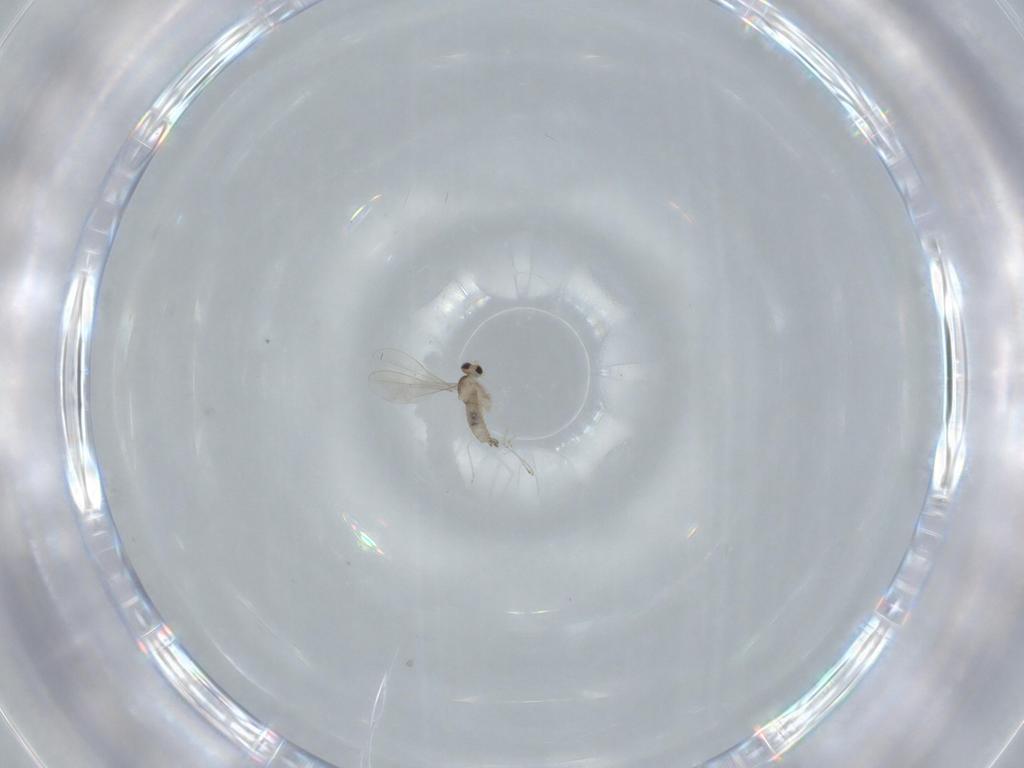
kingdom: Animalia
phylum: Arthropoda
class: Insecta
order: Diptera
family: Cecidomyiidae
